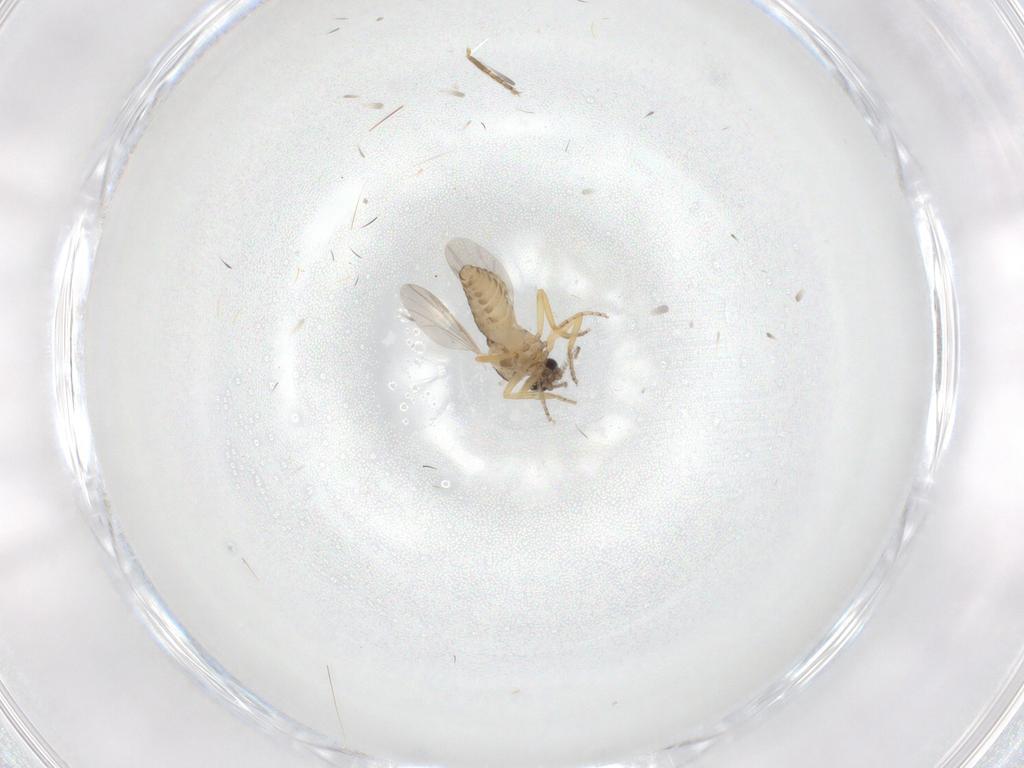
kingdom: Animalia
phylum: Arthropoda
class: Insecta
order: Diptera
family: Ceratopogonidae
